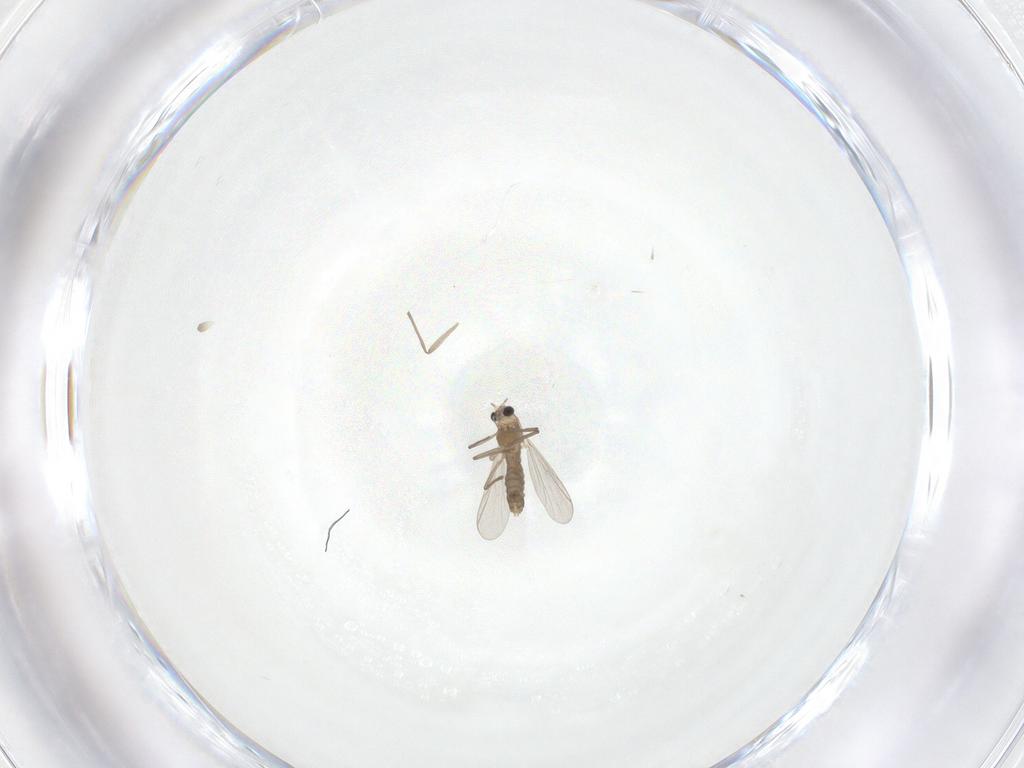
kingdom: Animalia
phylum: Arthropoda
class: Insecta
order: Diptera
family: Chironomidae
